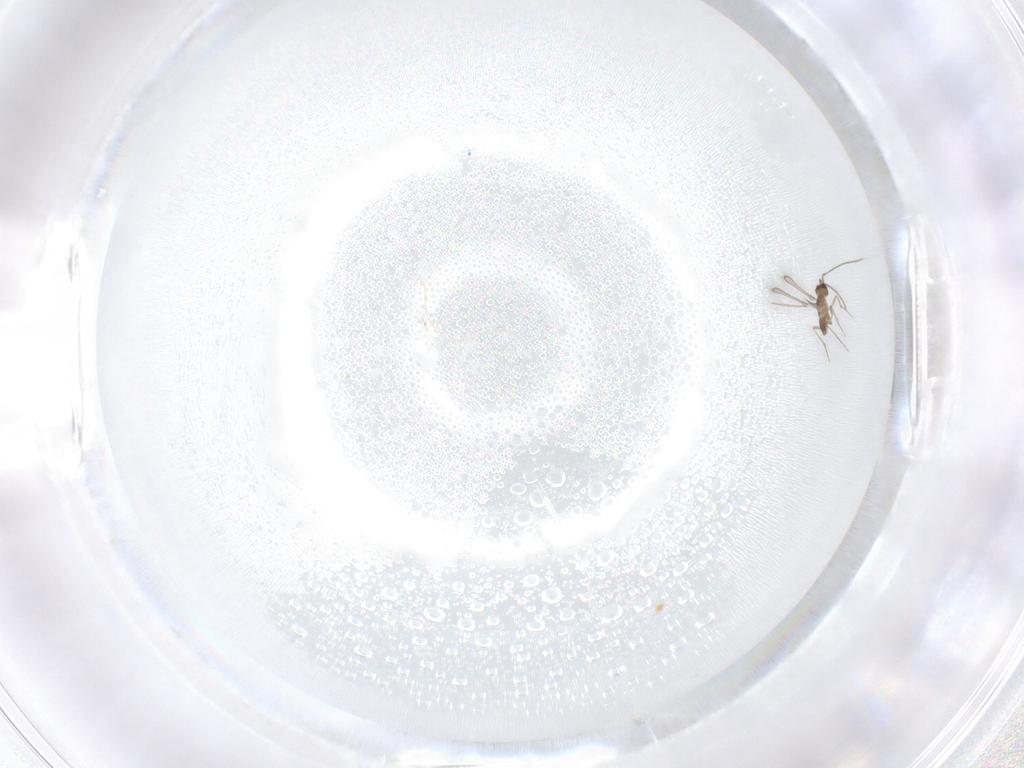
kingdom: Animalia
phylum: Arthropoda
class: Insecta
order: Hymenoptera
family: Mymaridae
